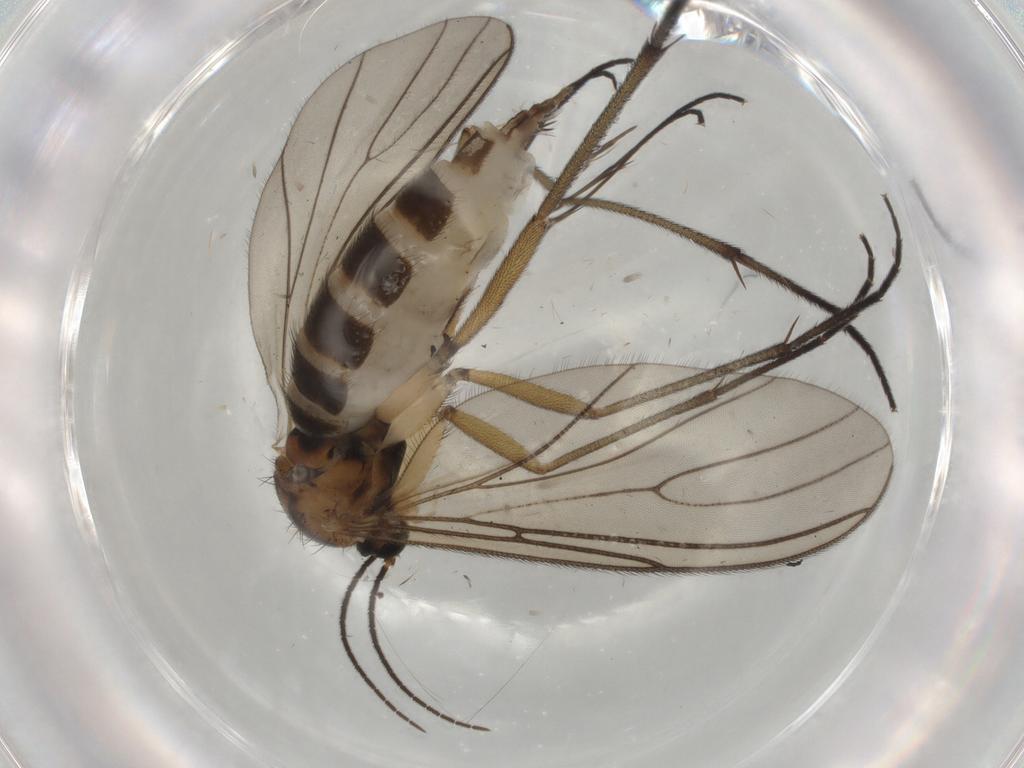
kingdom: Animalia
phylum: Arthropoda
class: Insecta
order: Diptera
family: Sciaridae
